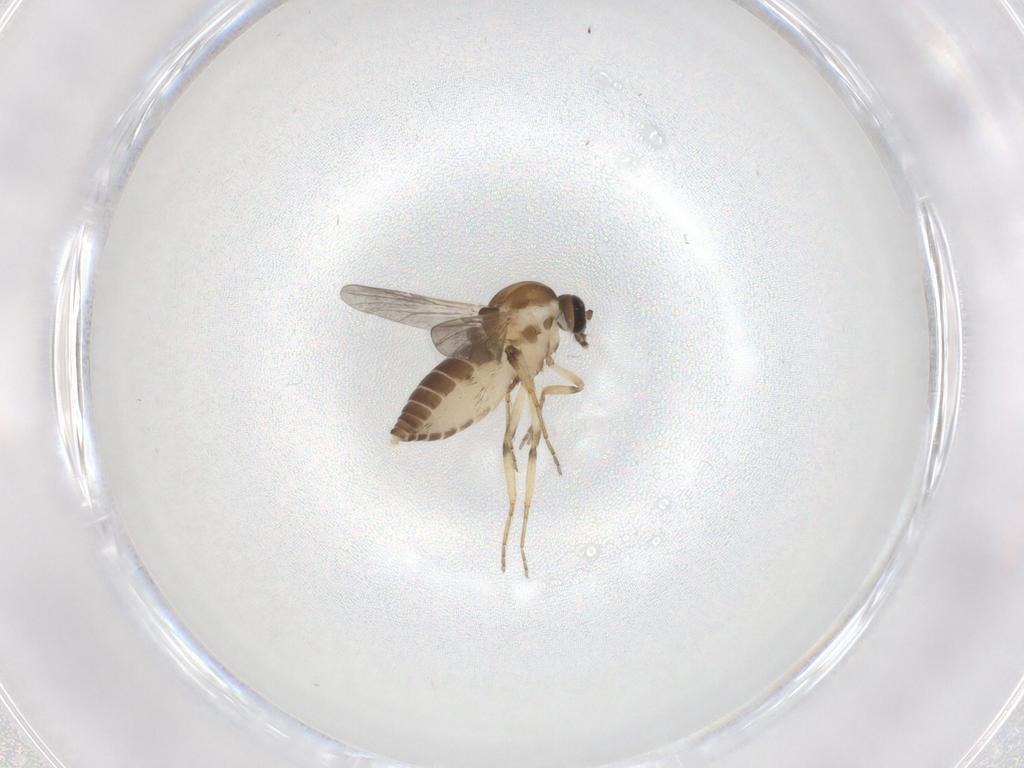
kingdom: Animalia
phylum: Arthropoda
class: Insecta
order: Diptera
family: Ceratopogonidae
